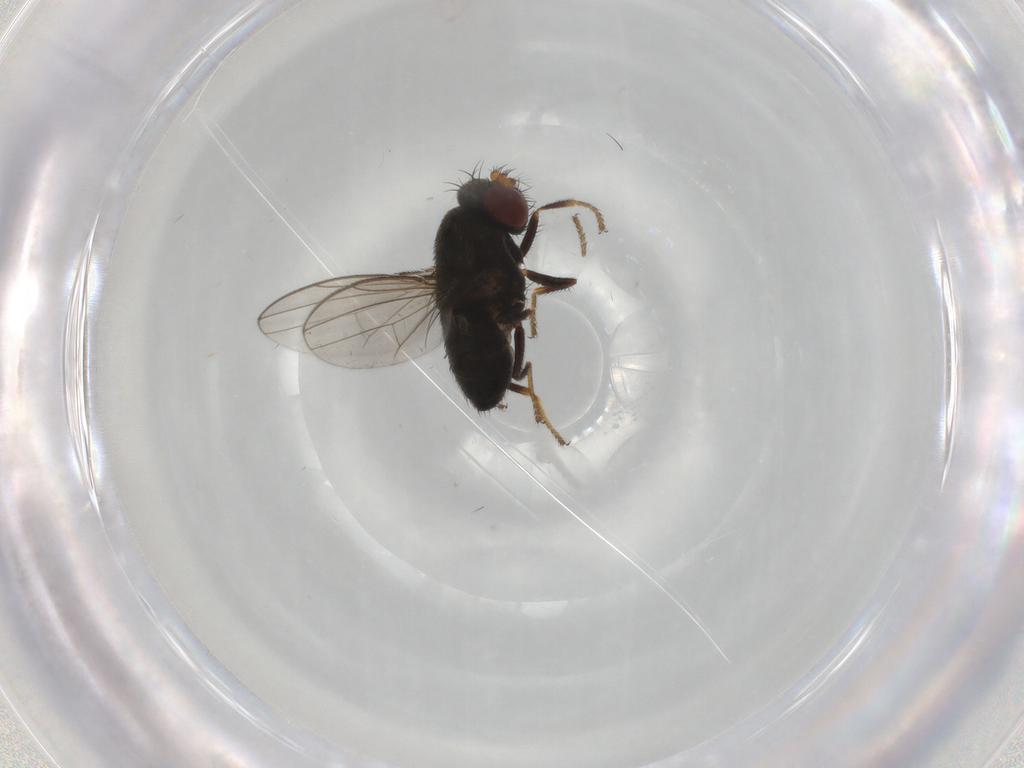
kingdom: Animalia
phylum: Arthropoda
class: Insecta
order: Diptera
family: Dolichopodidae
